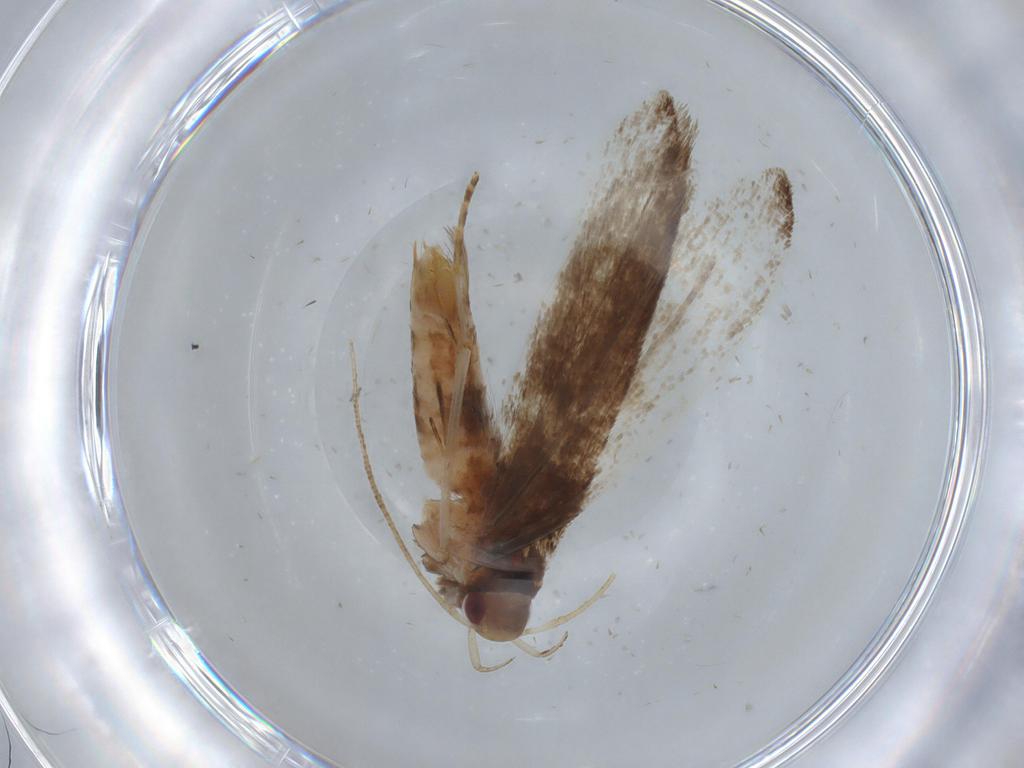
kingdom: Animalia
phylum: Arthropoda
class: Insecta
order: Lepidoptera
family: Gelechiidae
